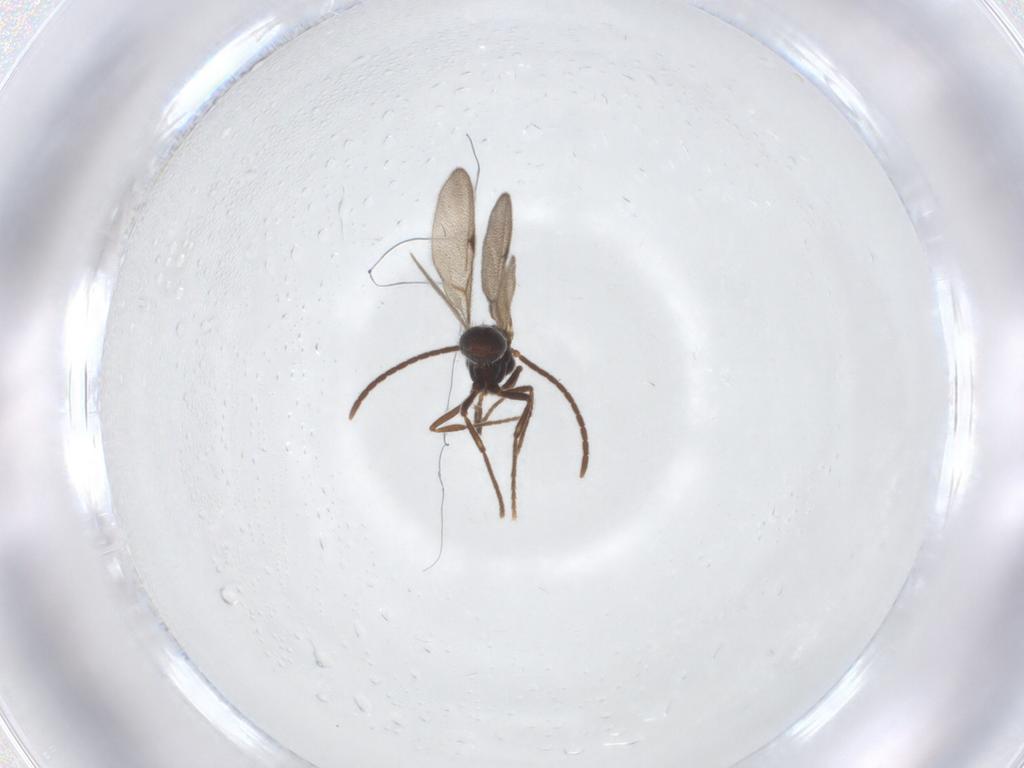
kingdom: Animalia
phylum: Arthropoda
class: Insecta
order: Hymenoptera
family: Formicidae
